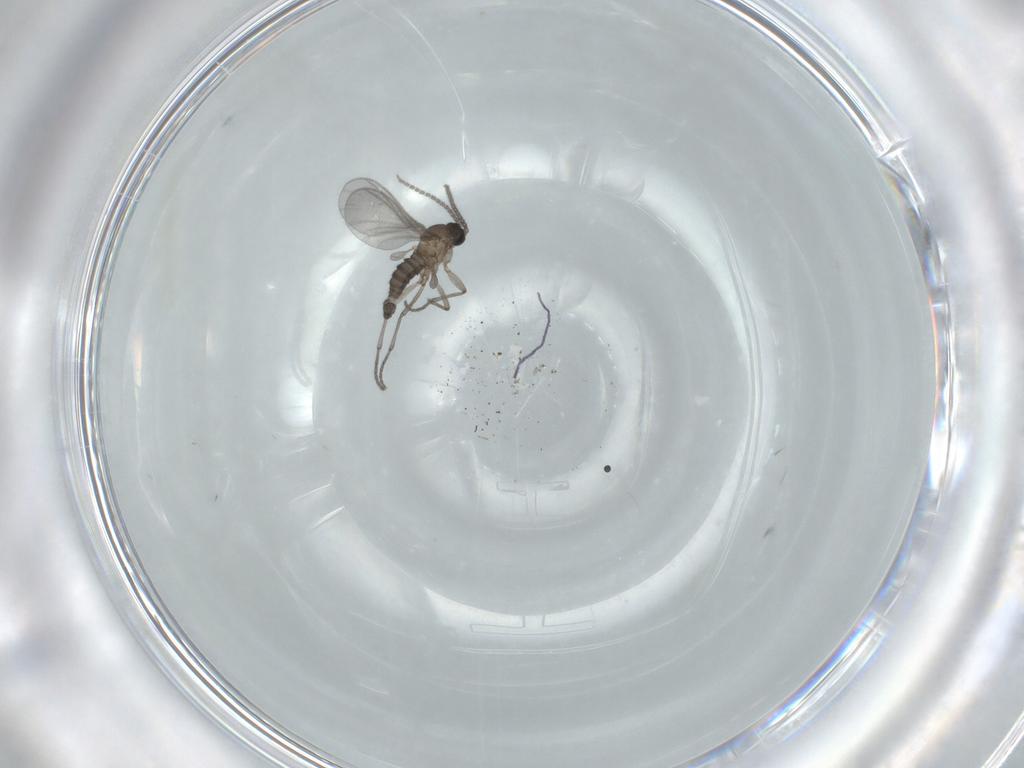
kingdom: Animalia
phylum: Arthropoda
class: Insecta
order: Diptera
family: Sciaridae
